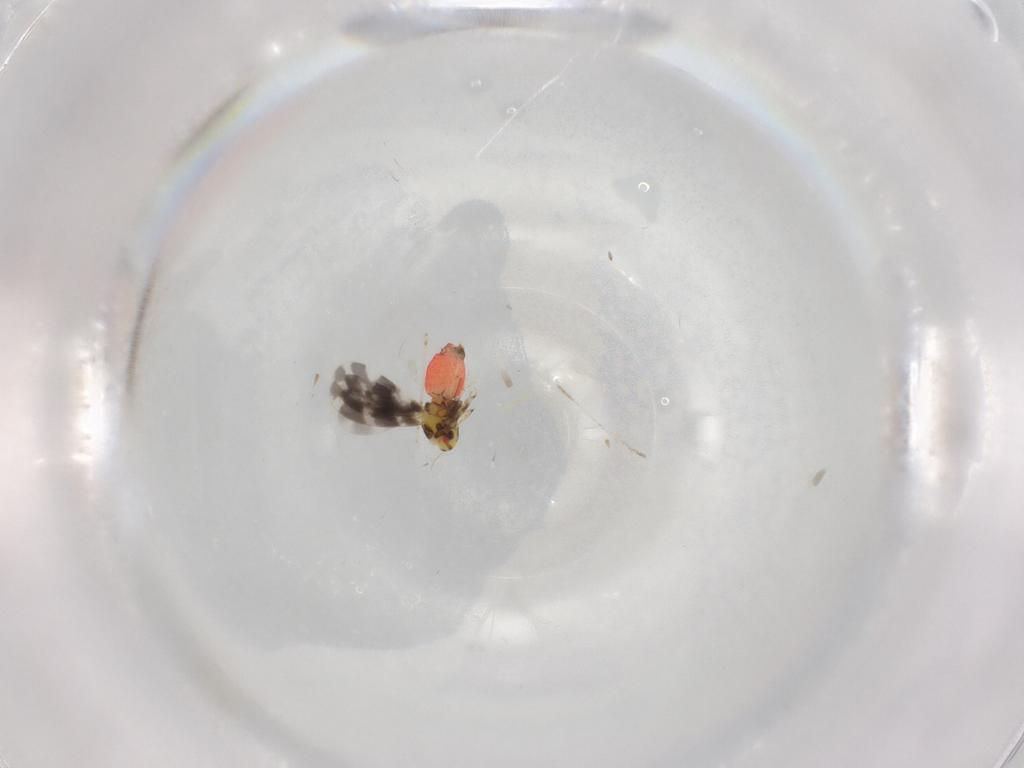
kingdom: Animalia
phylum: Arthropoda
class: Insecta
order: Hemiptera
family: Aleyrodidae
